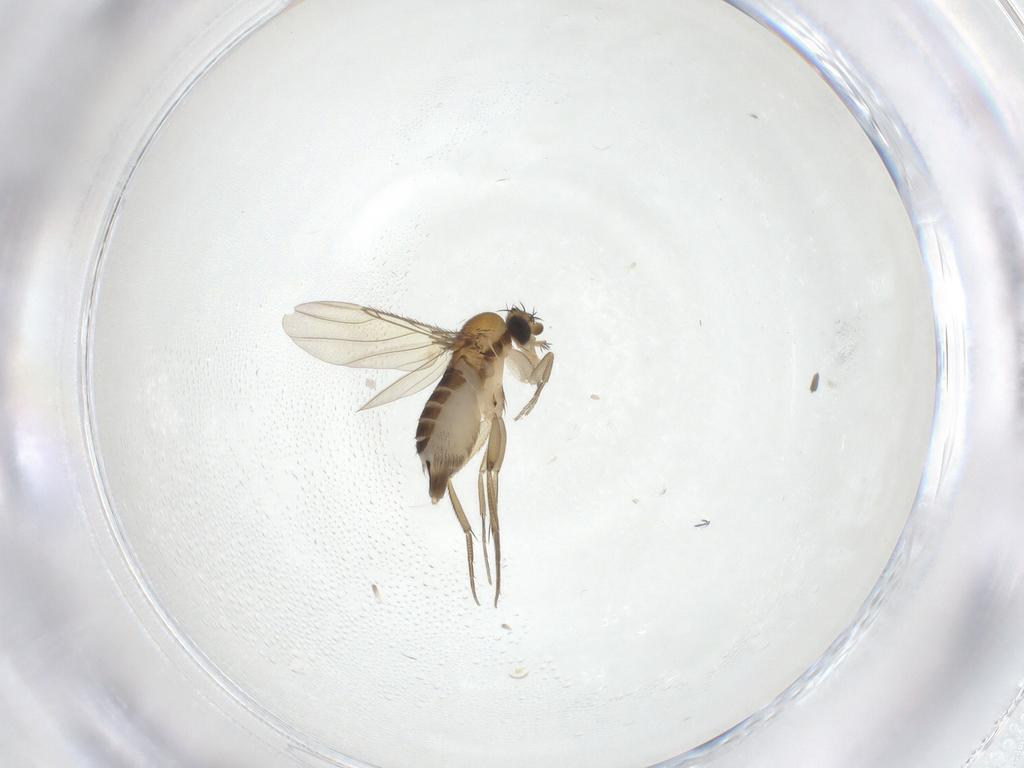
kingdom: Animalia
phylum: Arthropoda
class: Insecta
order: Diptera
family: Phoridae
